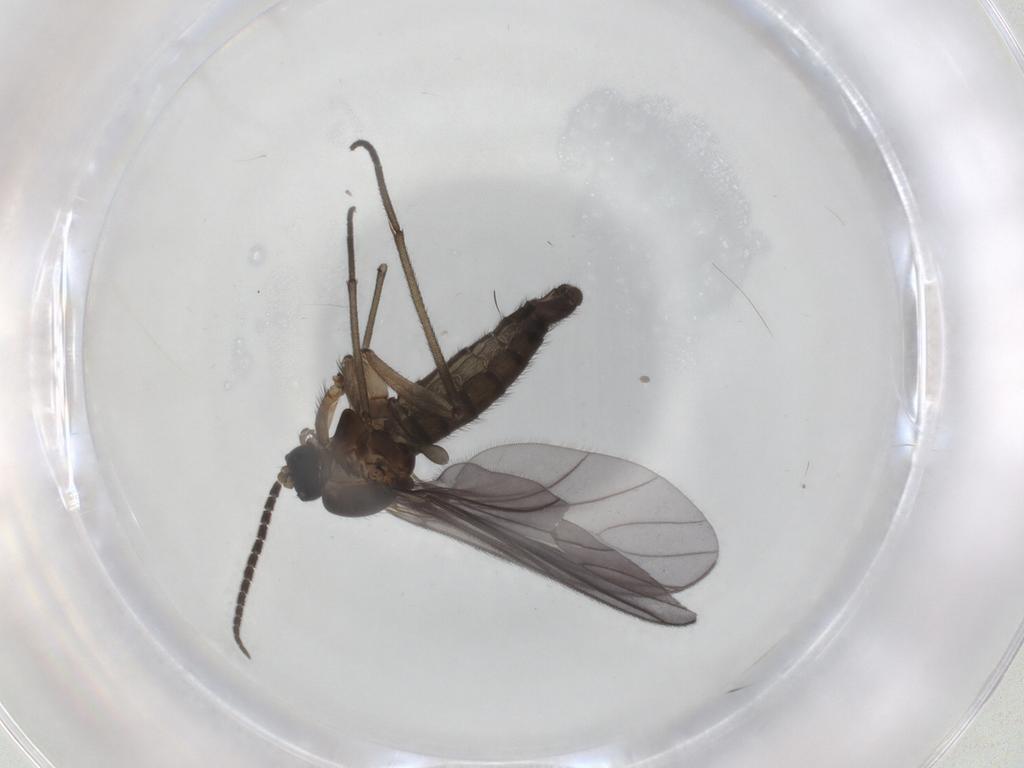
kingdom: Animalia
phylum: Arthropoda
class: Insecta
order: Diptera
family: Sciaridae
